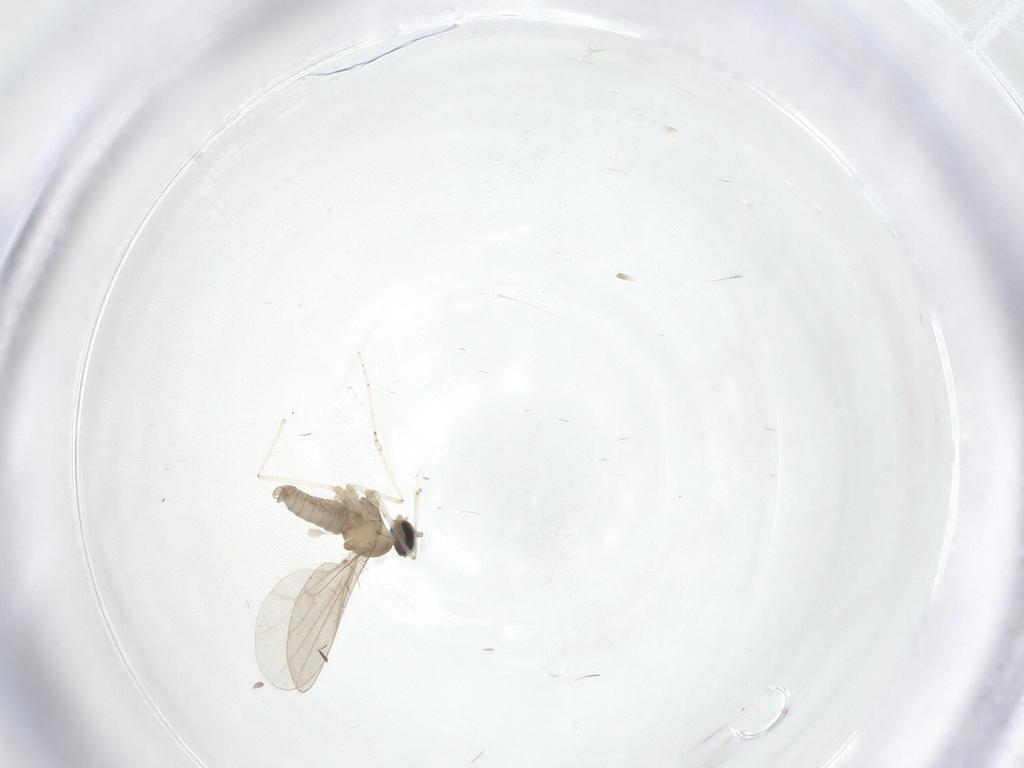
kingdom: Animalia
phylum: Arthropoda
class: Insecta
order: Diptera
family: Cecidomyiidae
